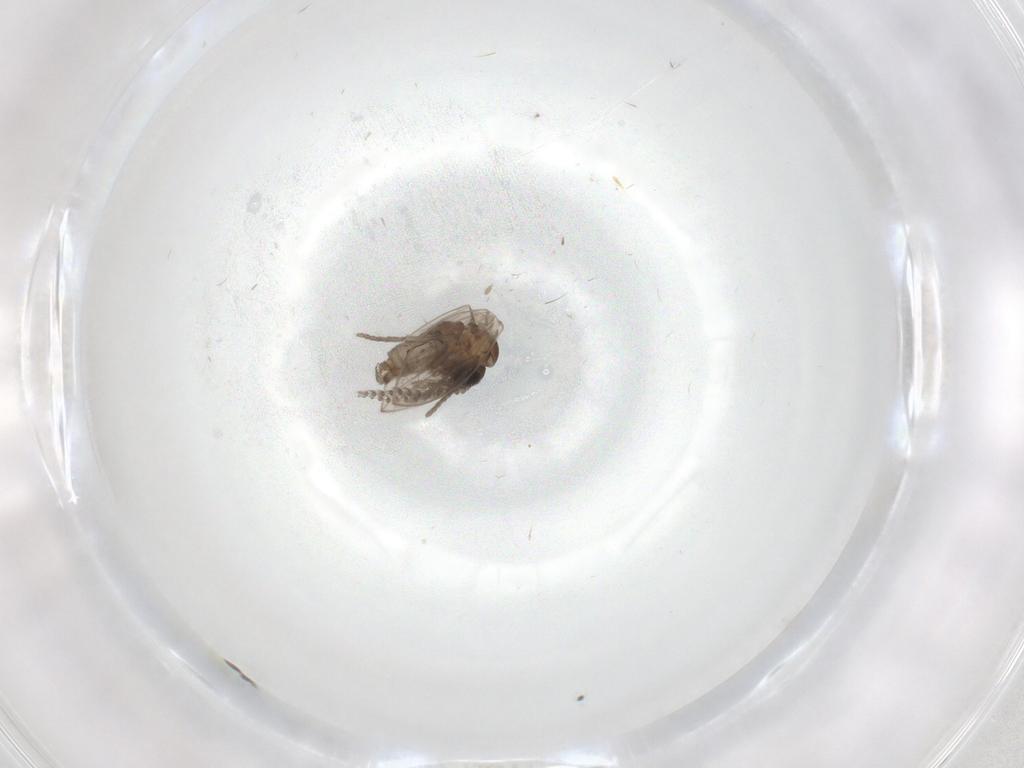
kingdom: Animalia
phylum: Arthropoda
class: Insecta
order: Diptera
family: Psychodidae
